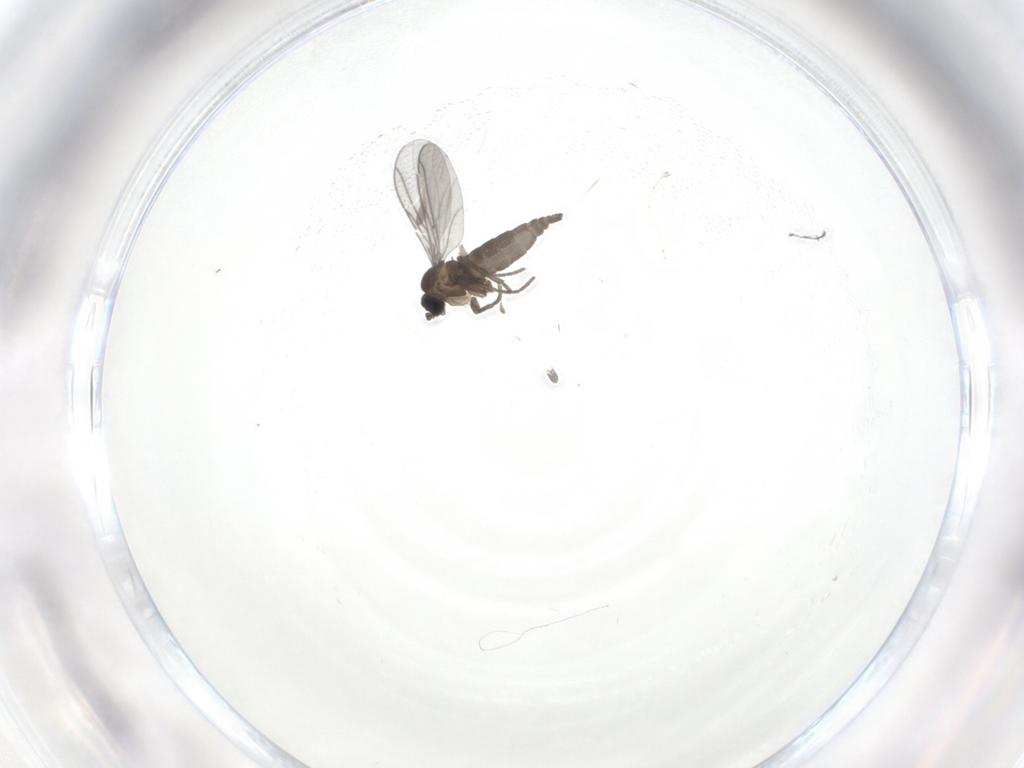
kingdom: Animalia
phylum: Arthropoda
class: Insecta
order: Diptera
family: Cecidomyiidae
